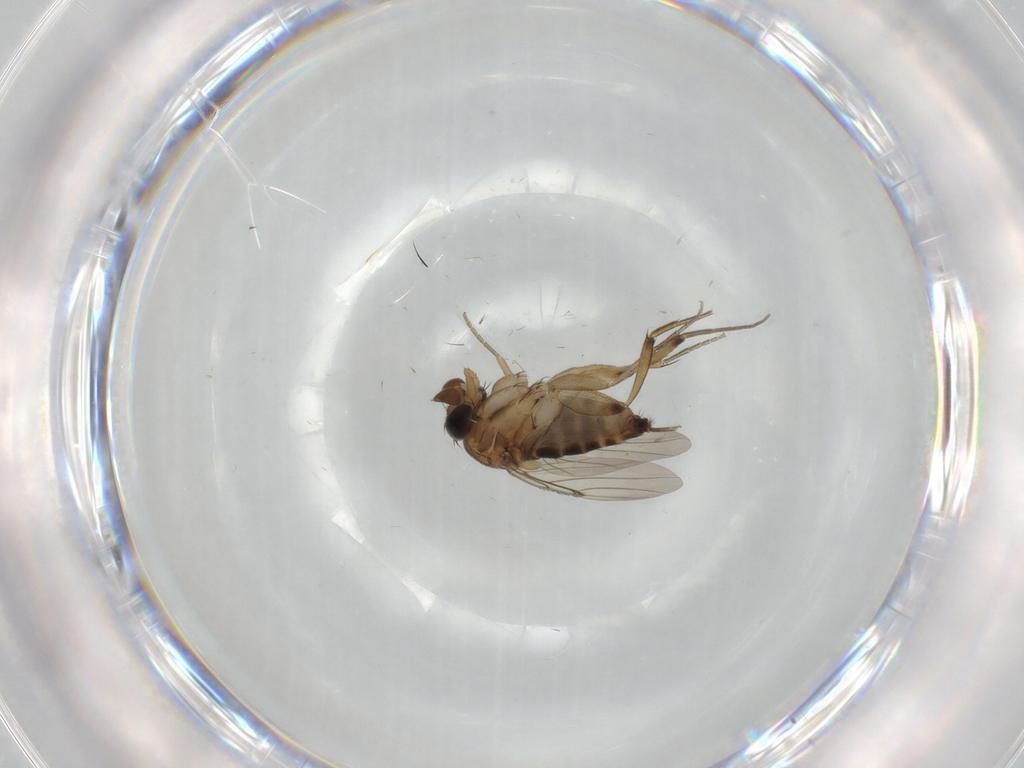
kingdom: Animalia
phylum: Arthropoda
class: Insecta
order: Diptera
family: Phoridae
